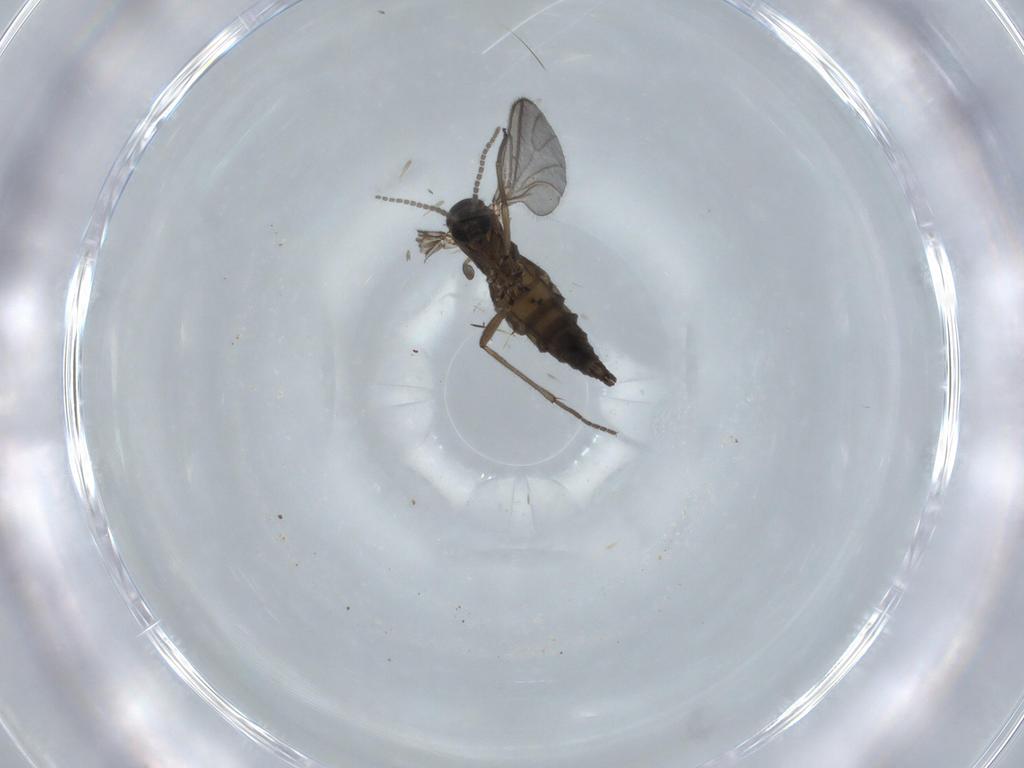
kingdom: Animalia
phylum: Arthropoda
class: Insecta
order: Diptera
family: Sciaridae
